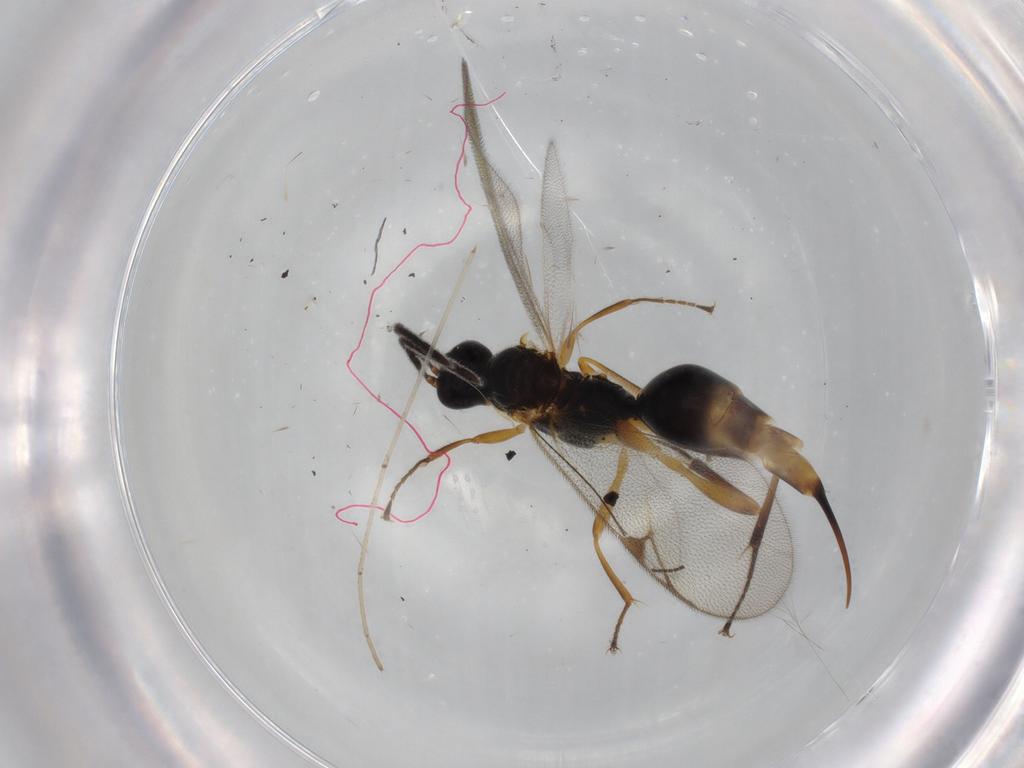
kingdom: Animalia
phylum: Arthropoda
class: Insecta
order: Hymenoptera
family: Proctotrupidae
